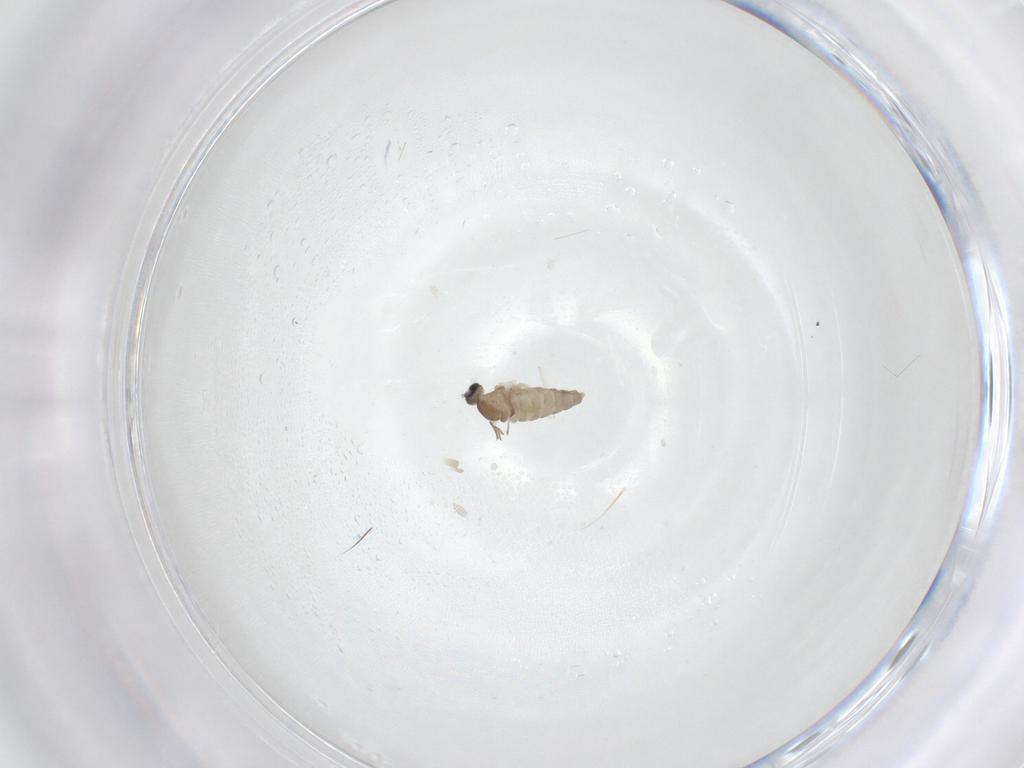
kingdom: Animalia
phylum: Arthropoda
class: Insecta
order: Diptera
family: Cecidomyiidae
